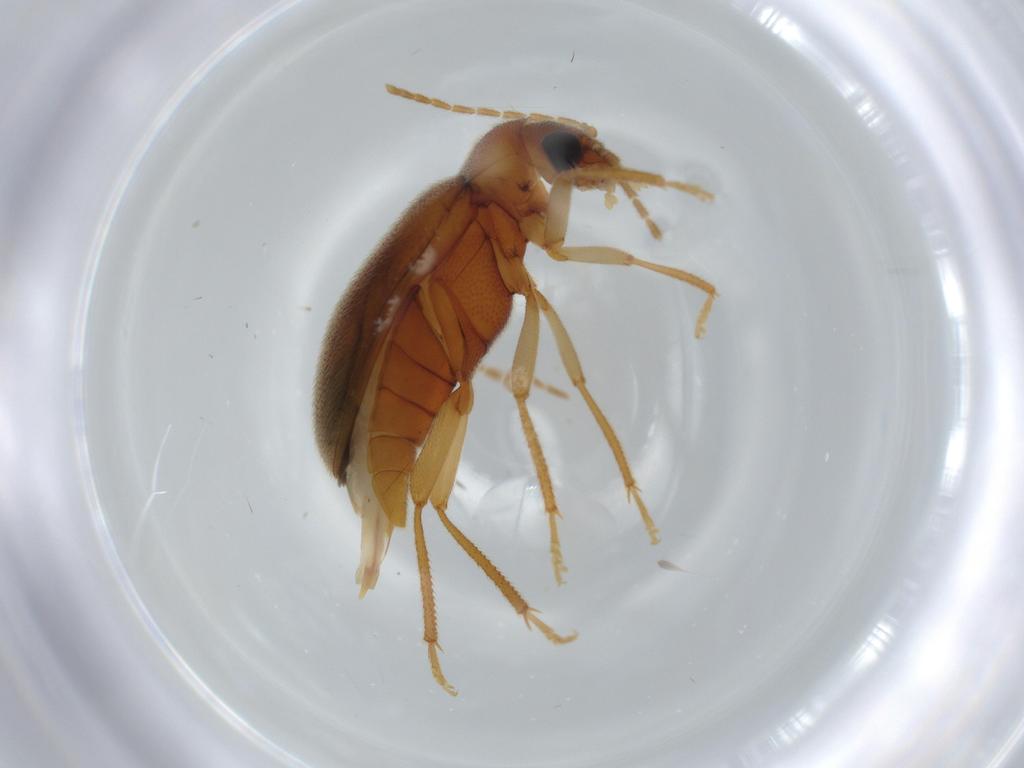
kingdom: Animalia
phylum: Arthropoda
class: Insecta
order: Coleoptera
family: Ptilodactylidae
